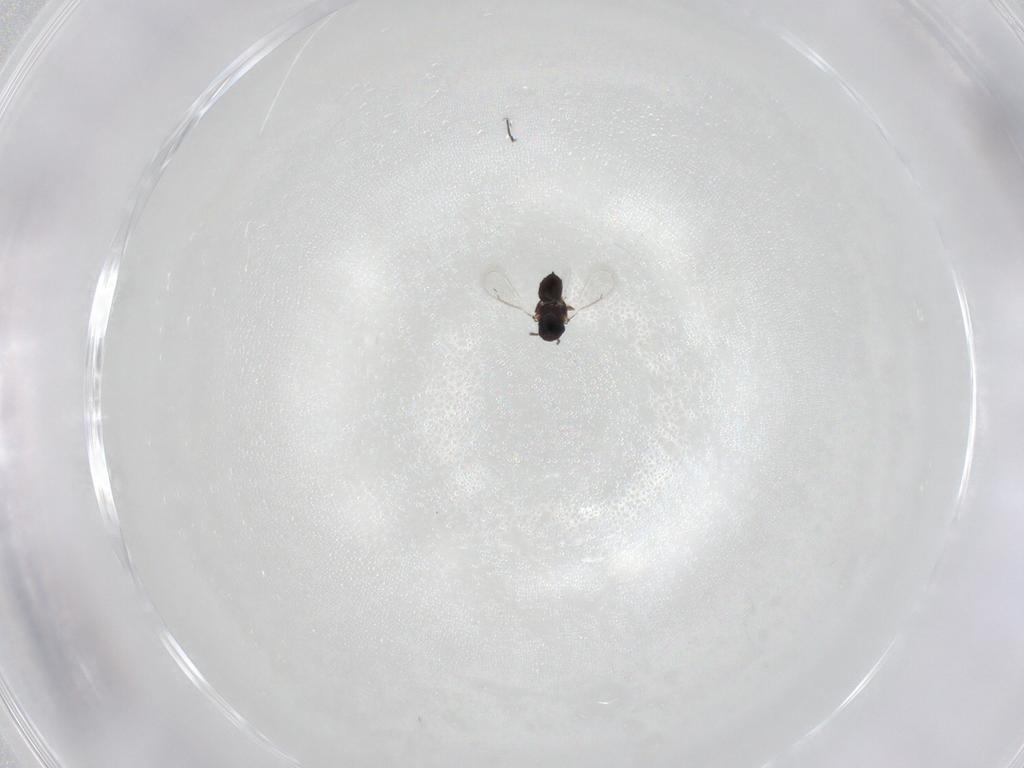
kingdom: Animalia
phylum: Arthropoda
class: Insecta
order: Hymenoptera
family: Eulophidae
